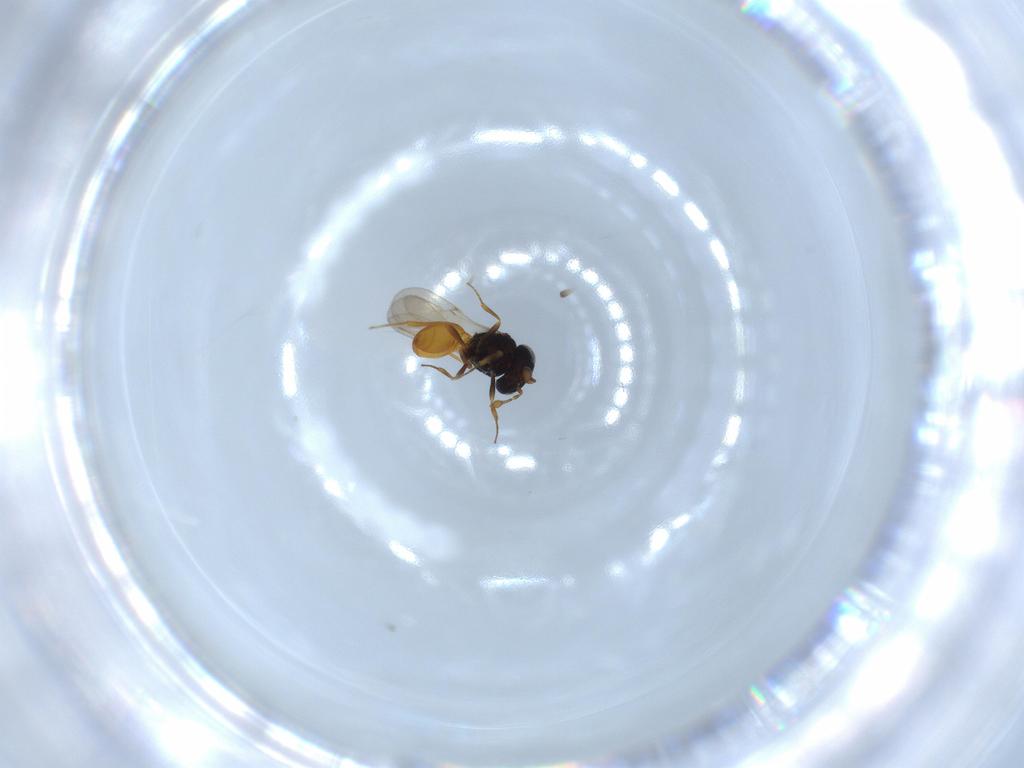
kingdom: Animalia
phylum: Arthropoda
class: Insecta
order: Hymenoptera
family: Scelionidae
